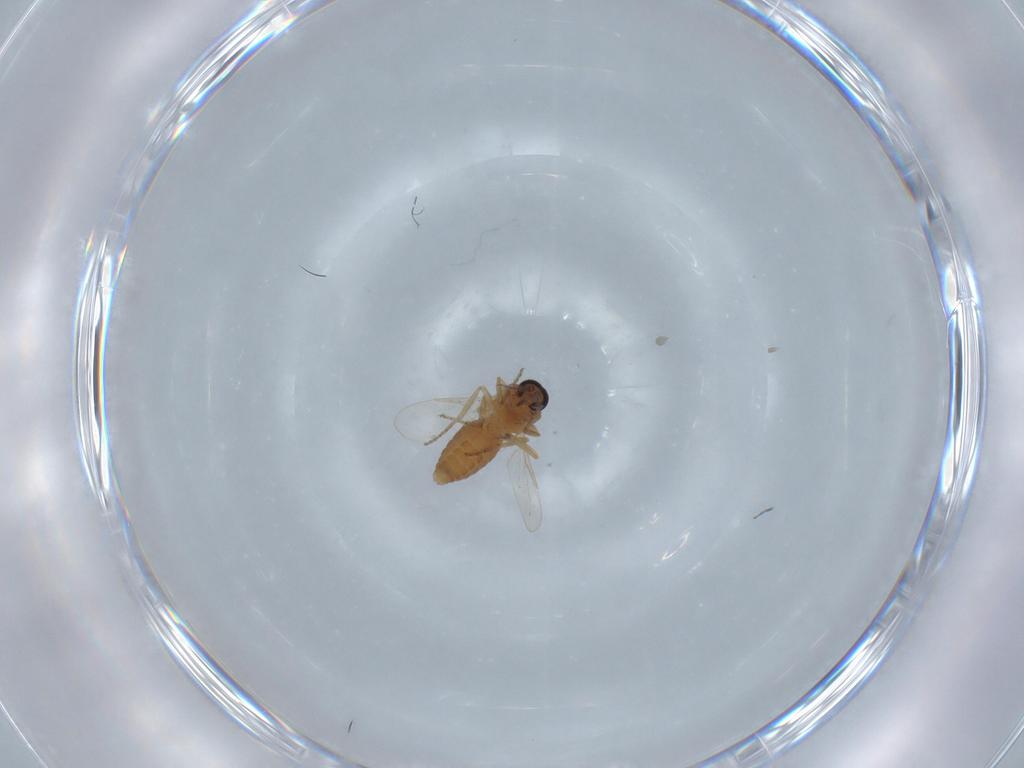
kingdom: Animalia
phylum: Arthropoda
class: Insecta
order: Diptera
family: Ceratopogonidae
